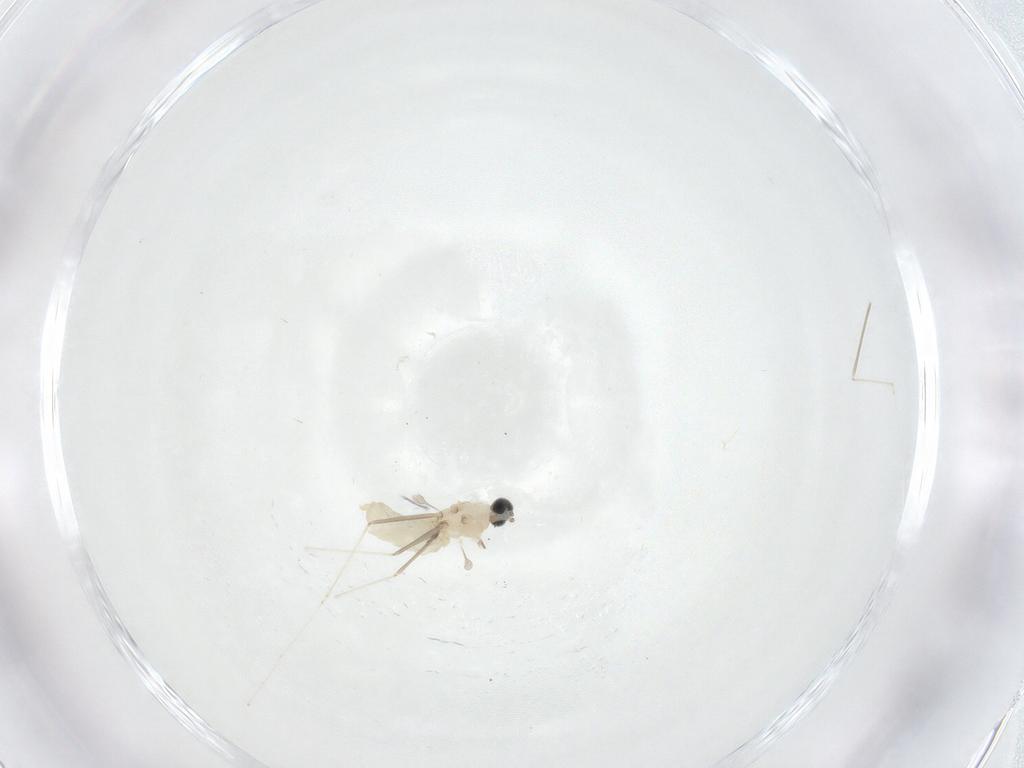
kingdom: Animalia
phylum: Arthropoda
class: Insecta
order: Diptera
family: Cecidomyiidae
